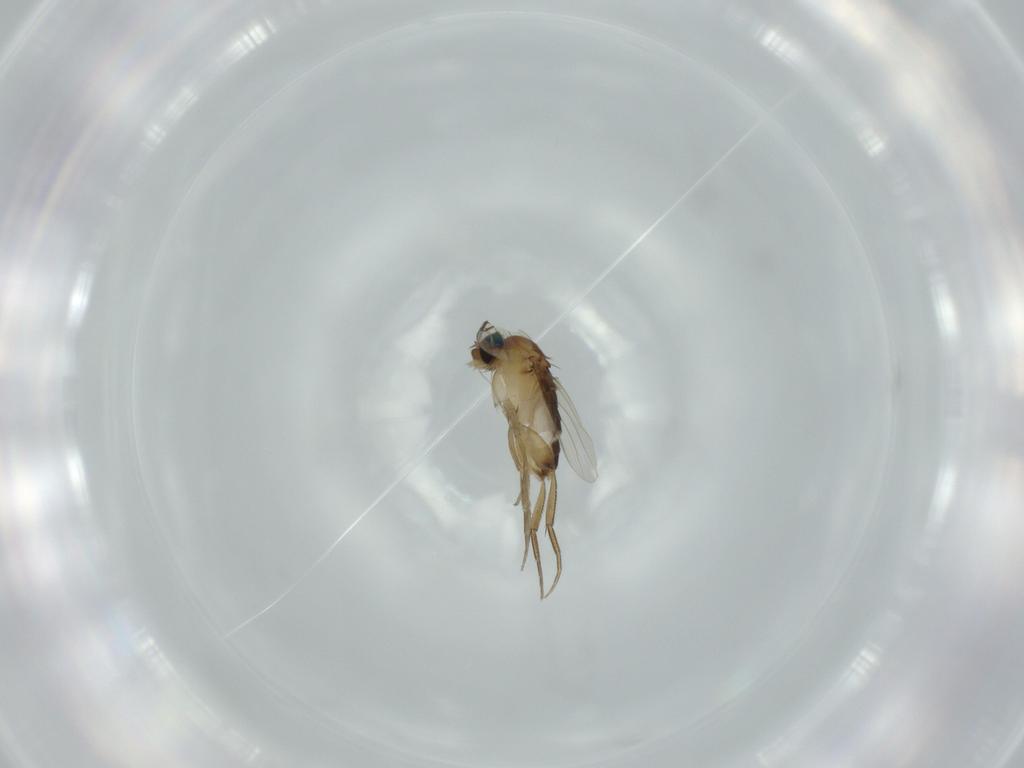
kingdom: Animalia
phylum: Arthropoda
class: Insecta
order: Diptera
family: Phoridae
